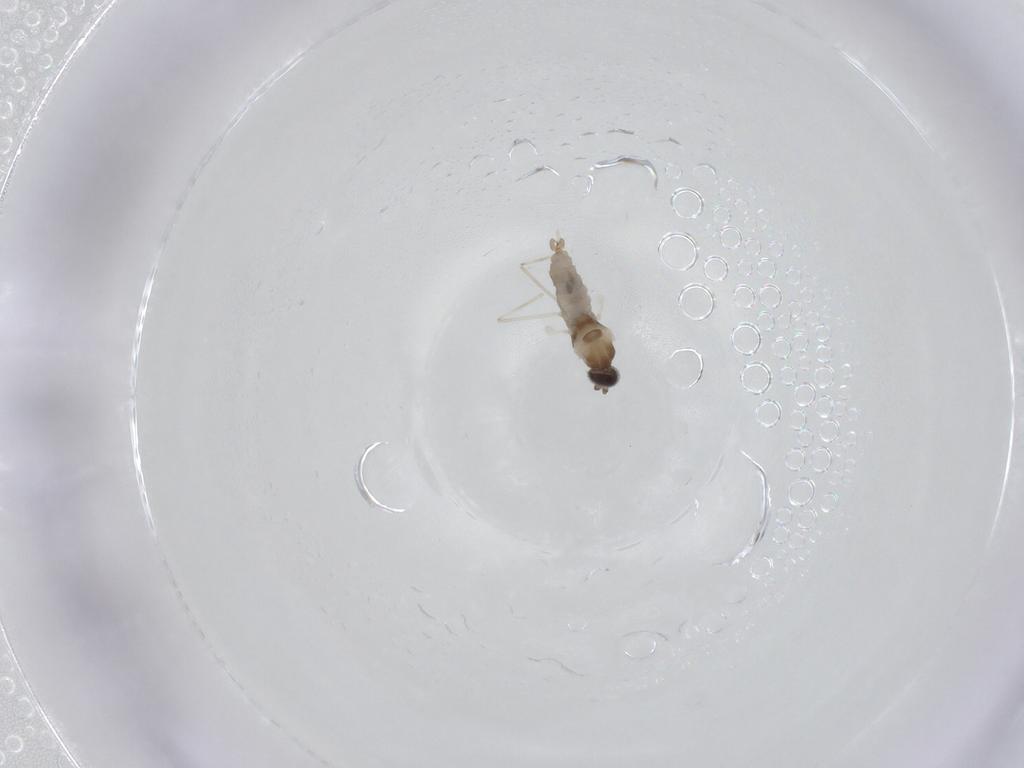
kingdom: Animalia
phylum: Arthropoda
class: Insecta
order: Diptera
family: Cecidomyiidae
